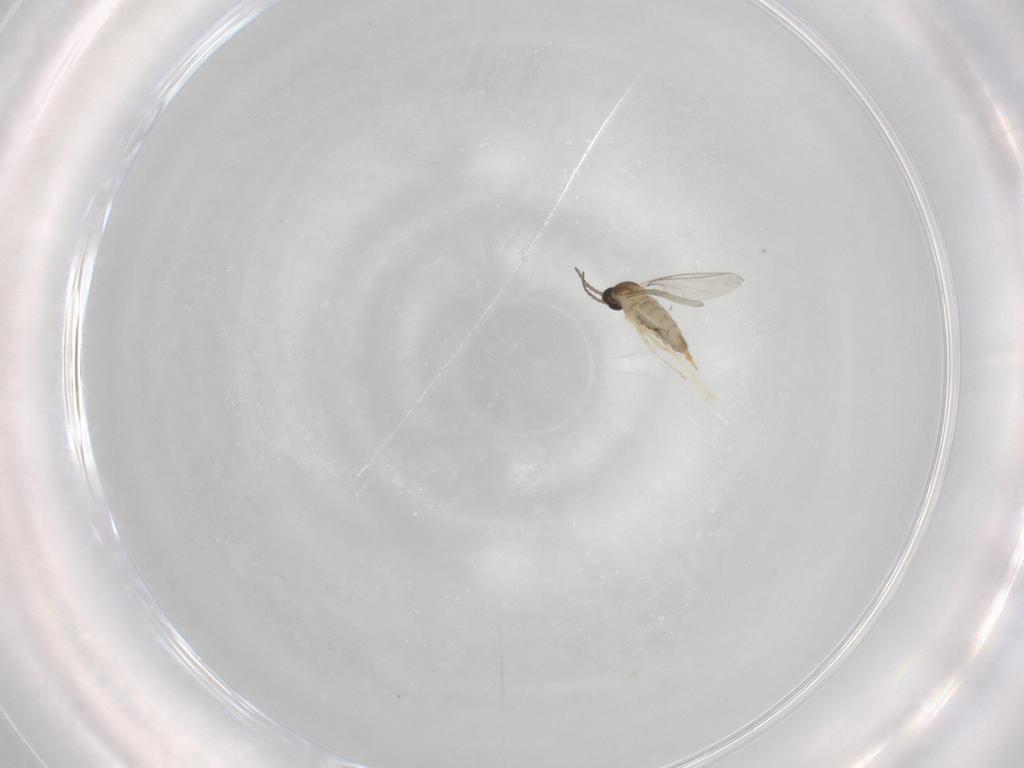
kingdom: Animalia
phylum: Arthropoda
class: Insecta
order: Diptera
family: Cecidomyiidae
